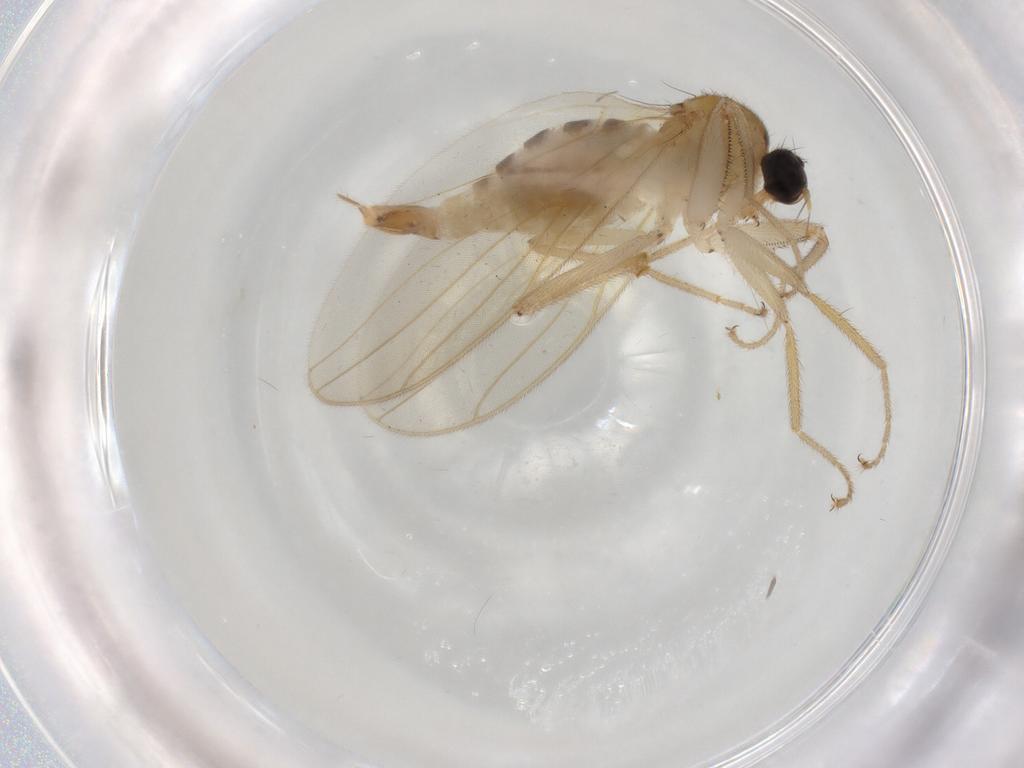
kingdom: Animalia
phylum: Arthropoda
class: Insecta
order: Diptera
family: Hybotidae
